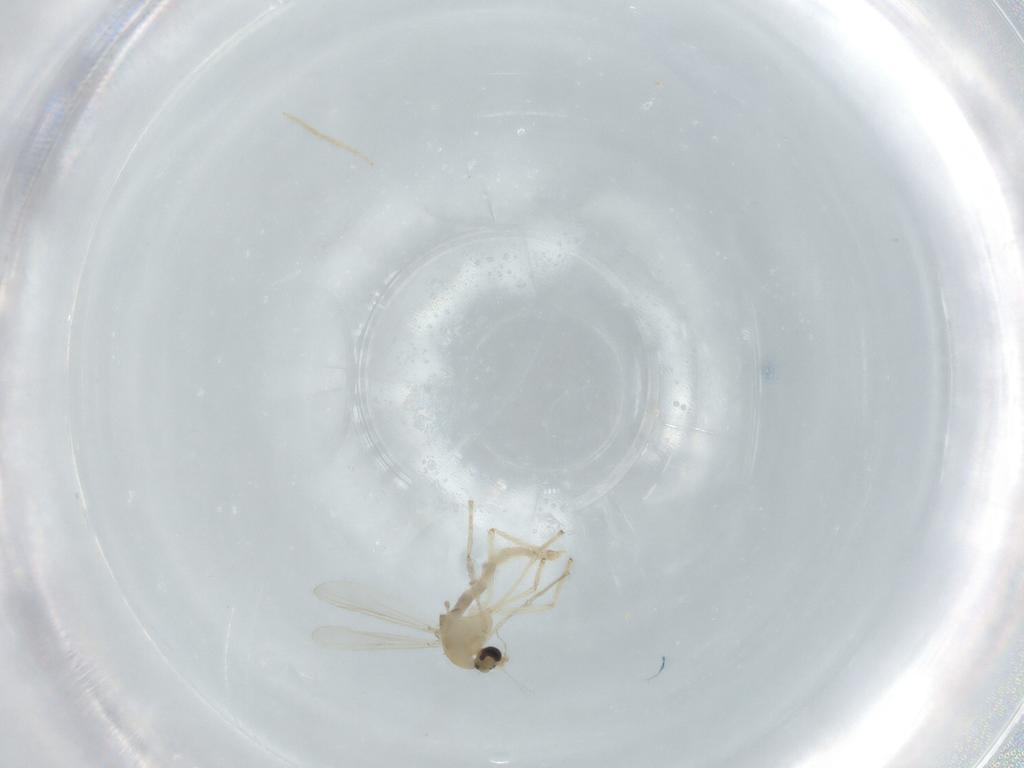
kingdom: Animalia
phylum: Arthropoda
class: Insecta
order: Diptera
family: Chironomidae
